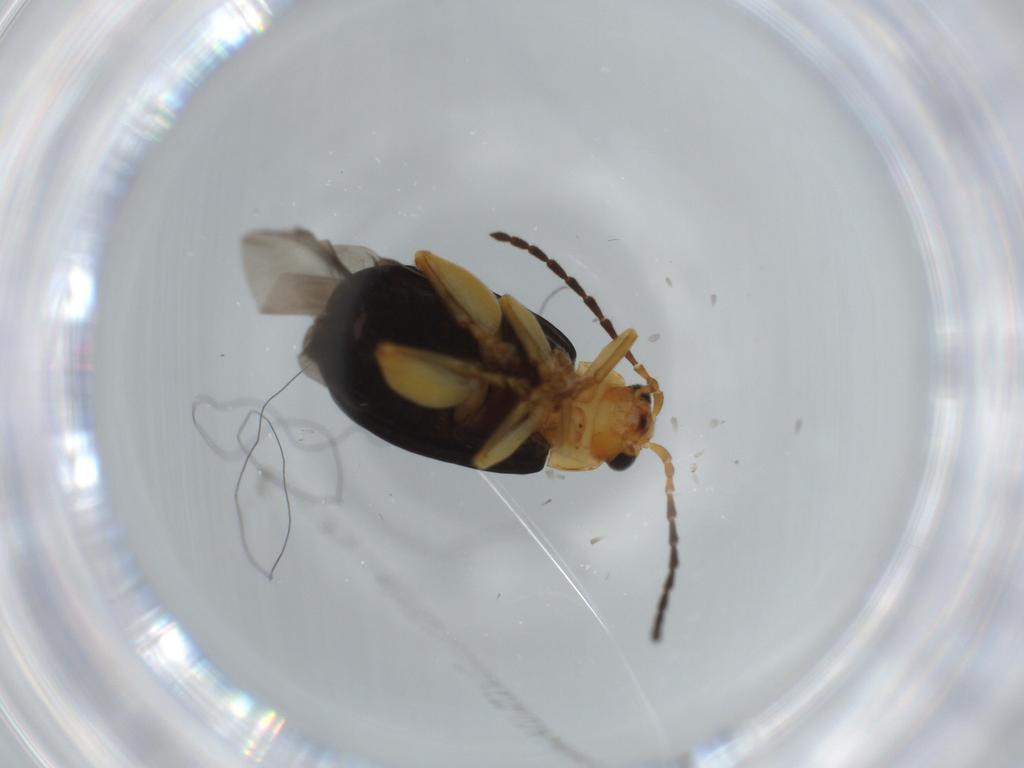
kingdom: Animalia
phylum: Arthropoda
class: Insecta
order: Coleoptera
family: Chrysomelidae
